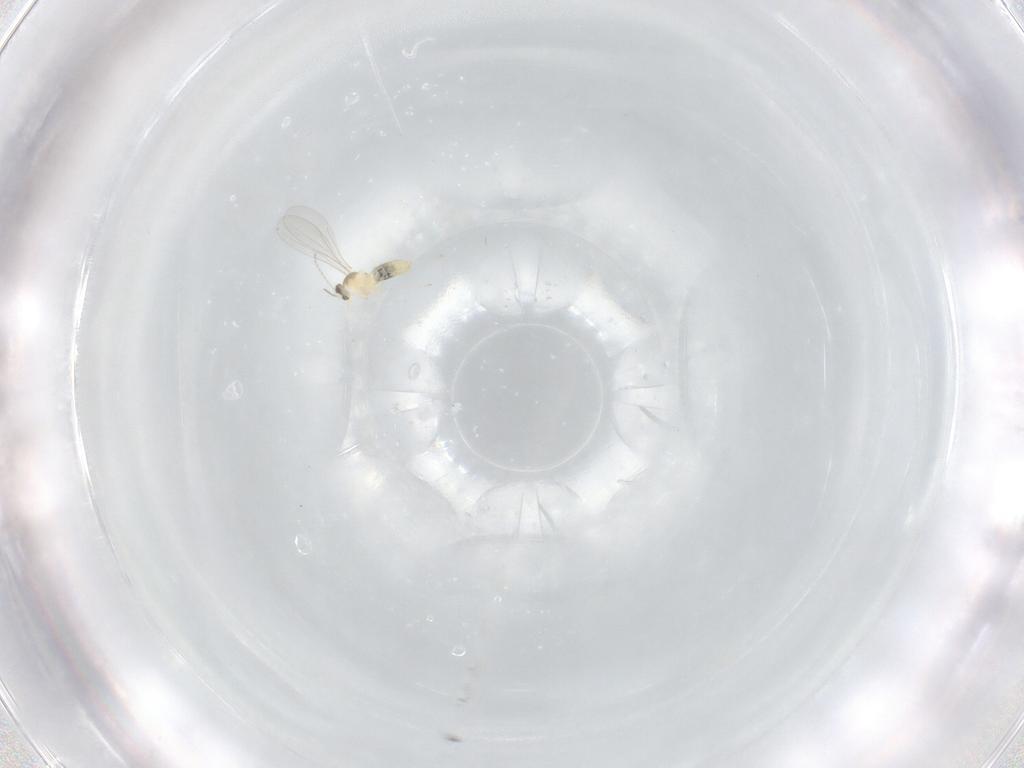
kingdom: Animalia
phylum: Arthropoda
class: Insecta
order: Diptera
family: Cecidomyiidae
